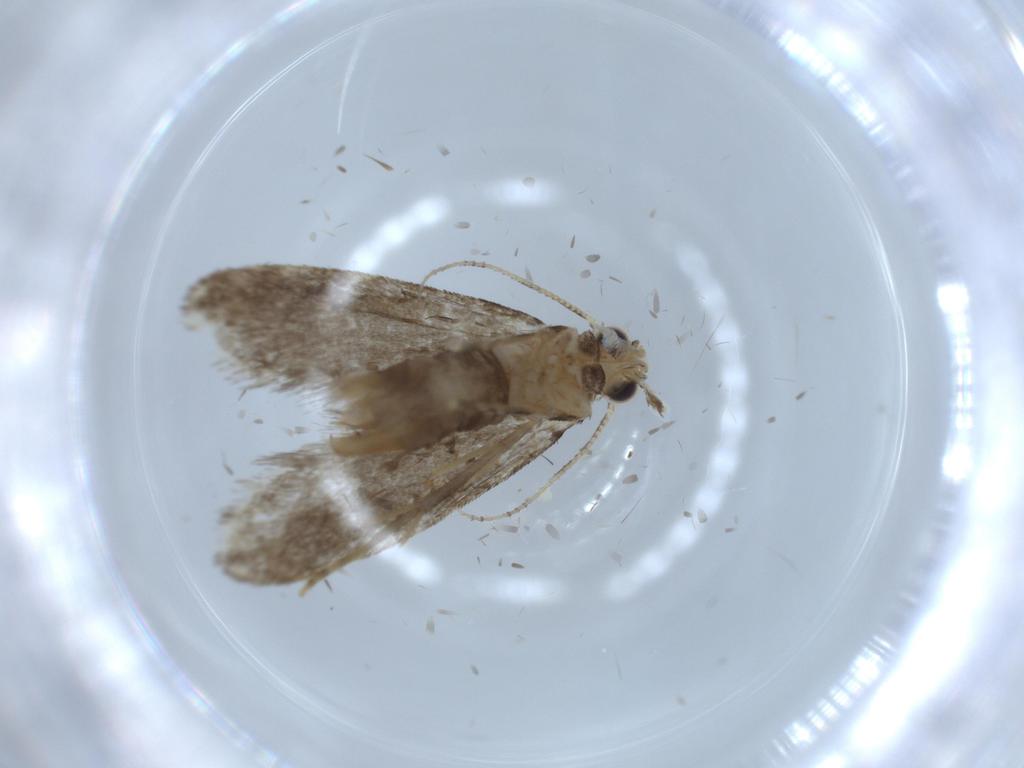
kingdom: Animalia
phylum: Arthropoda
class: Insecta
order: Lepidoptera
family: Tineidae
